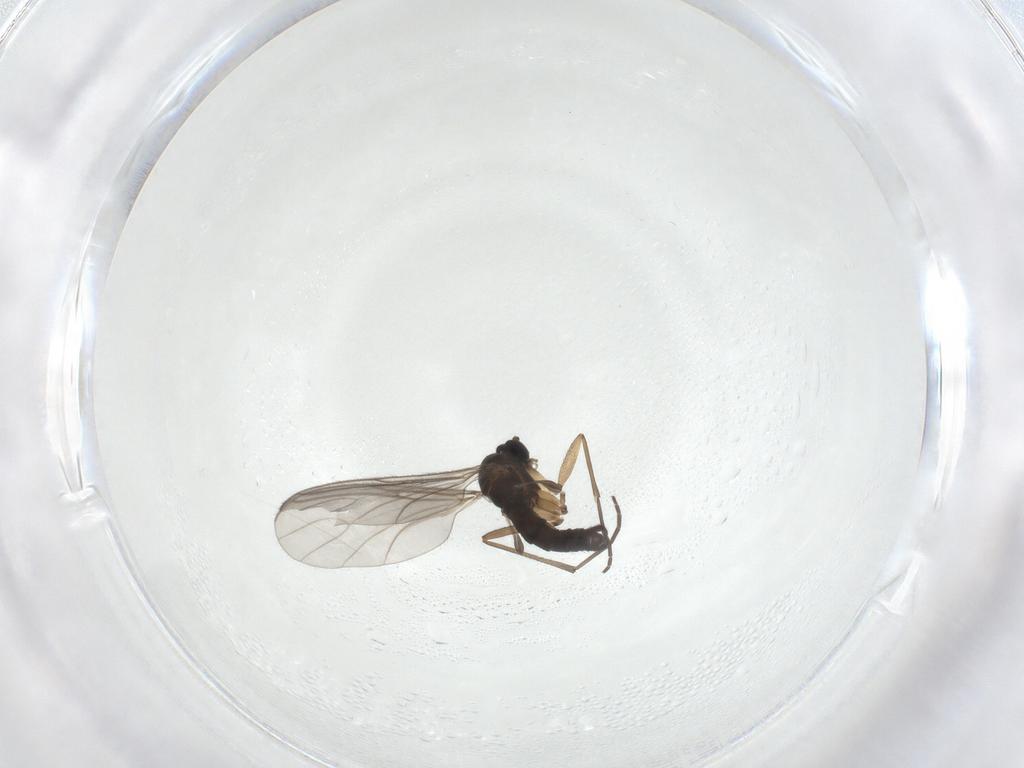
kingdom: Animalia
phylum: Arthropoda
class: Insecta
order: Diptera
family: Sciaridae
